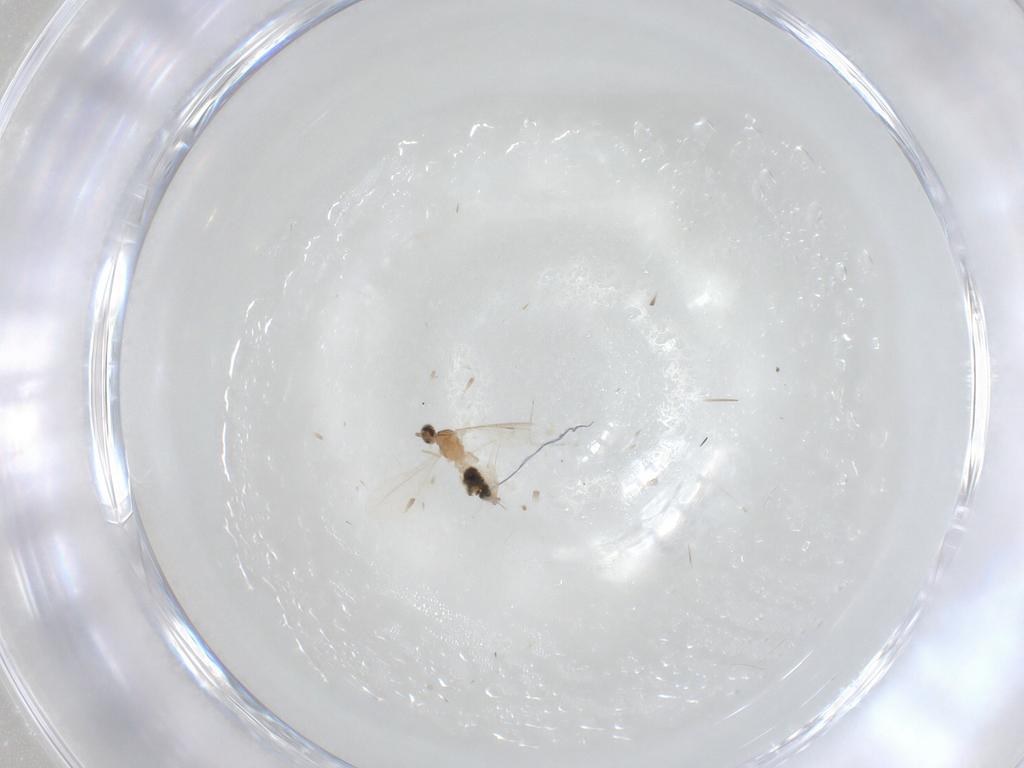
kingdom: Animalia
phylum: Arthropoda
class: Insecta
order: Diptera
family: Cecidomyiidae
